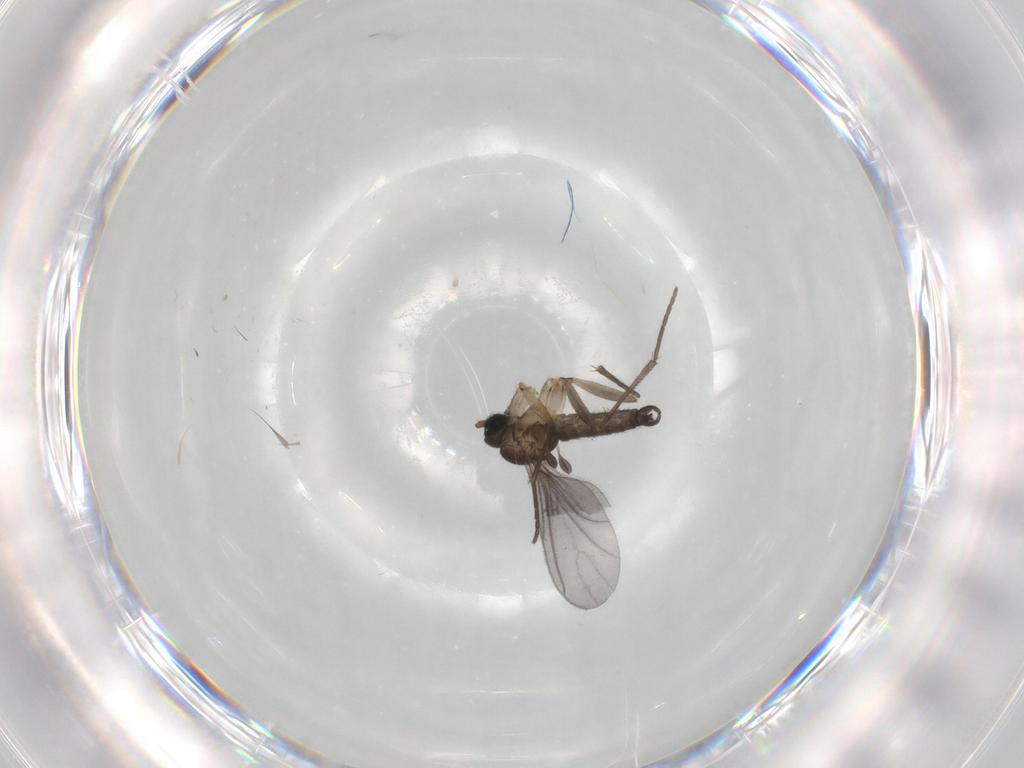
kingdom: Animalia
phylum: Arthropoda
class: Insecta
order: Diptera
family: Sciaridae
